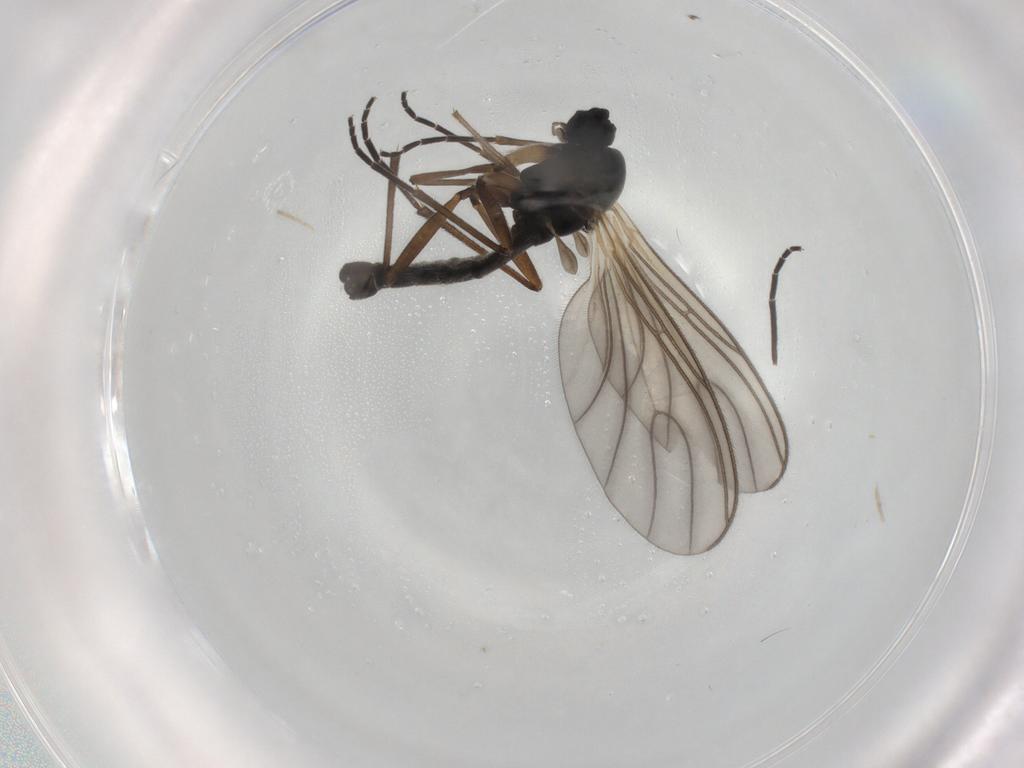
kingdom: Animalia
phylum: Arthropoda
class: Insecta
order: Diptera
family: Sciaridae
